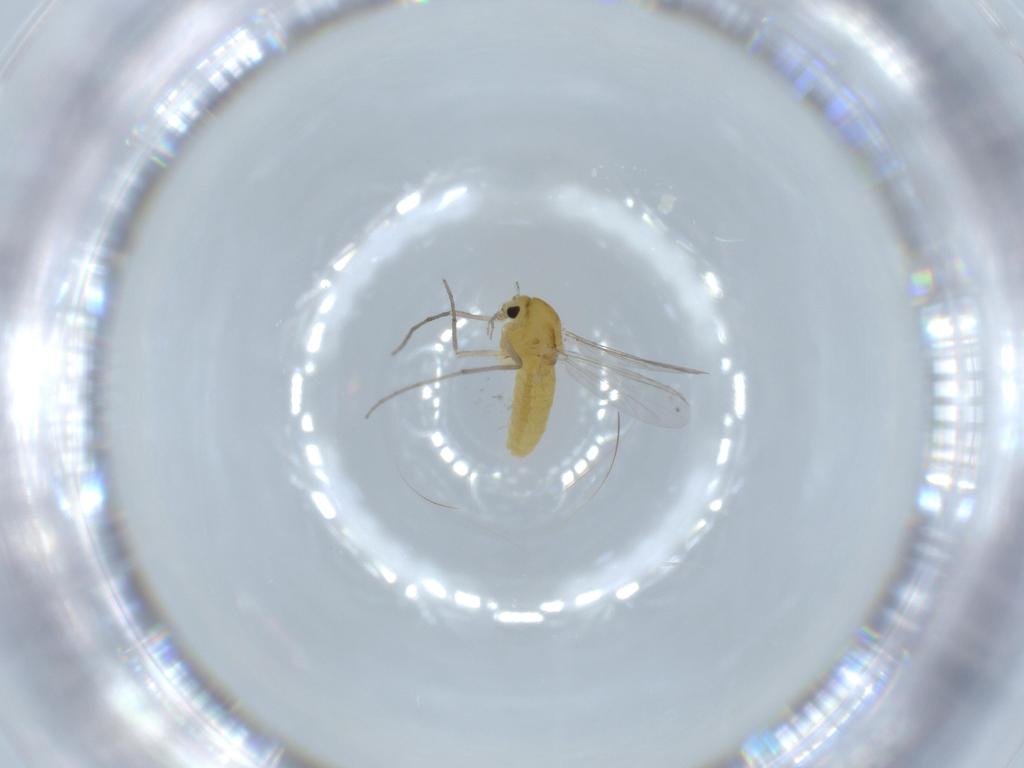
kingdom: Animalia
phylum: Arthropoda
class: Insecta
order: Diptera
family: Chironomidae
